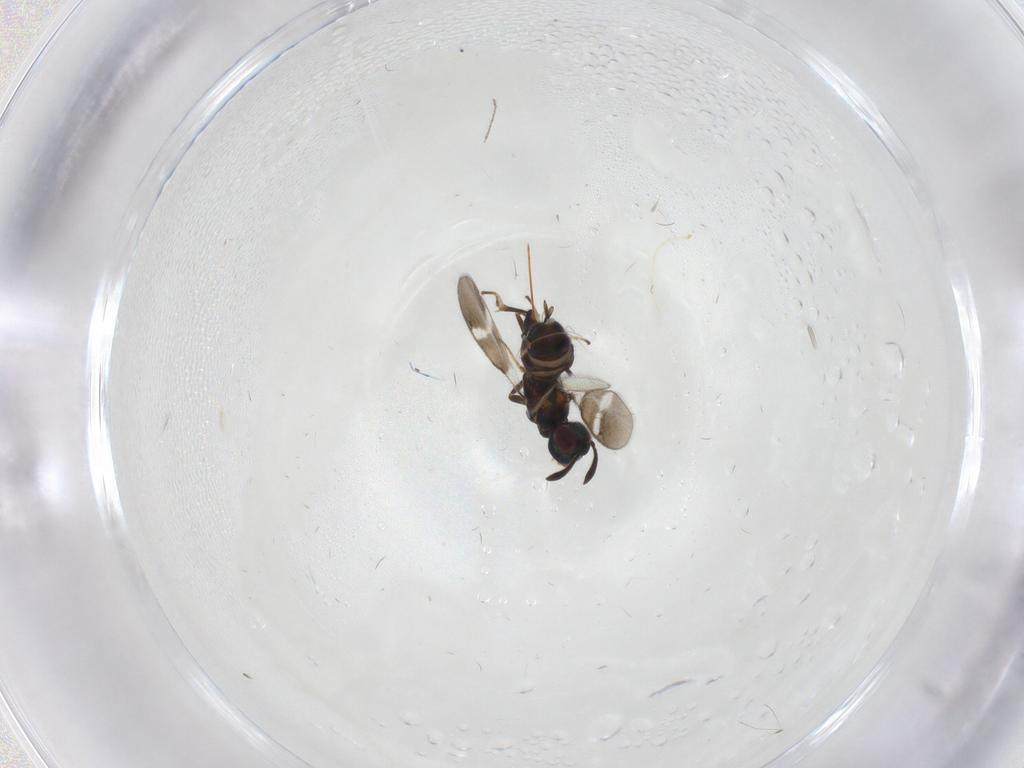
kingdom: Animalia
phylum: Arthropoda
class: Insecta
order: Hymenoptera
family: Eupelmidae
